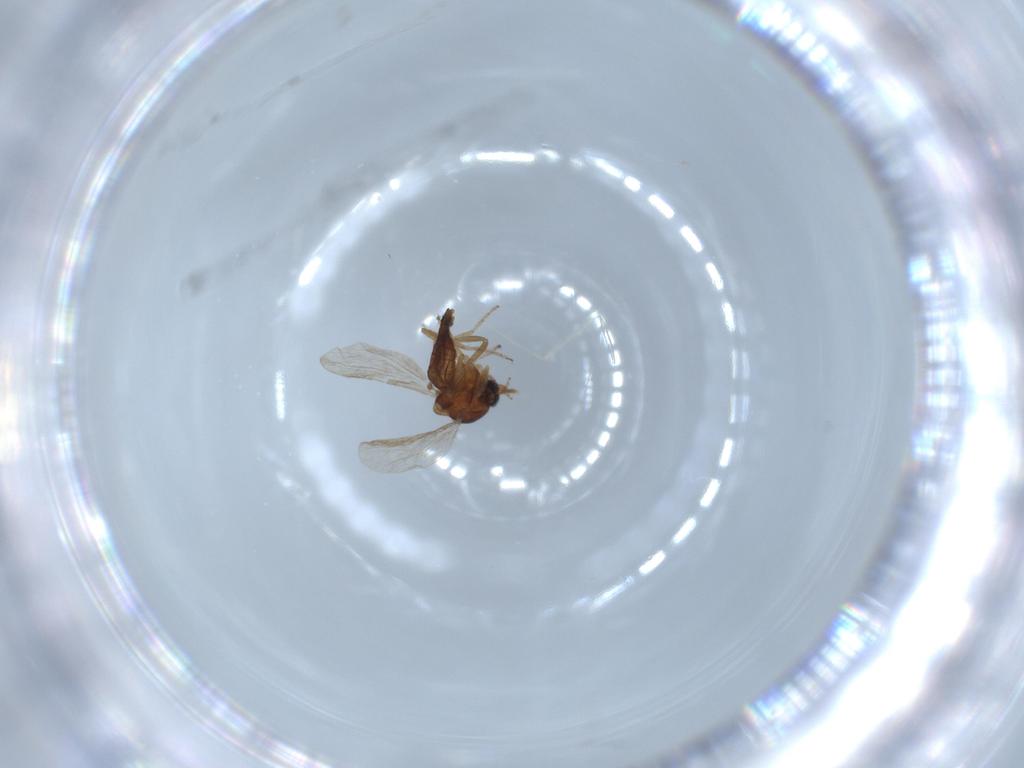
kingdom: Animalia
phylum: Arthropoda
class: Insecta
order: Diptera
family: Ceratopogonidae
